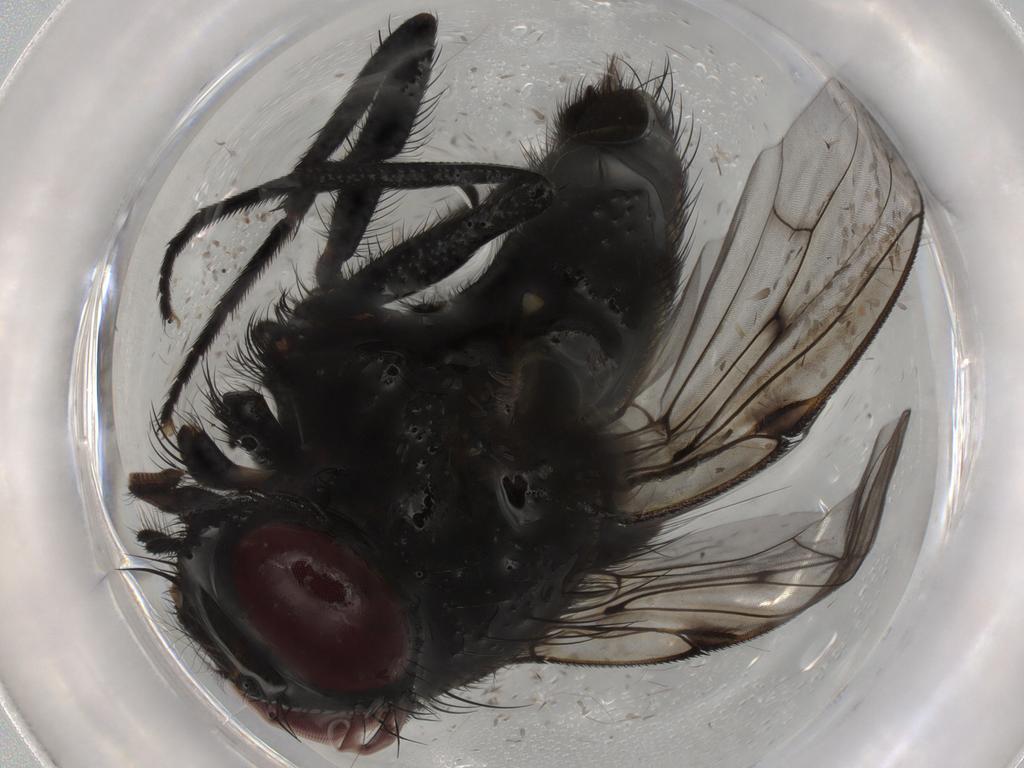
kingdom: Animalia
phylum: Arthropoda
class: Insecta
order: Diptera
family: Muscidae
